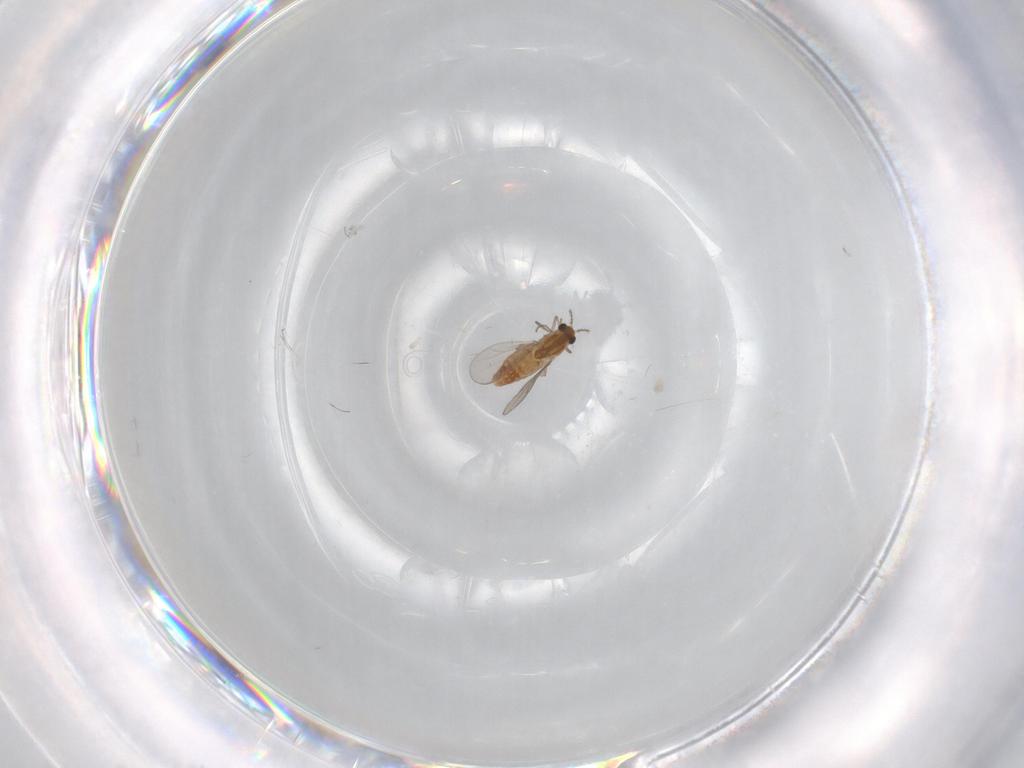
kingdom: Animalia
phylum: Arthropoda
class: Insecta
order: Diptera
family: Chironomidae
